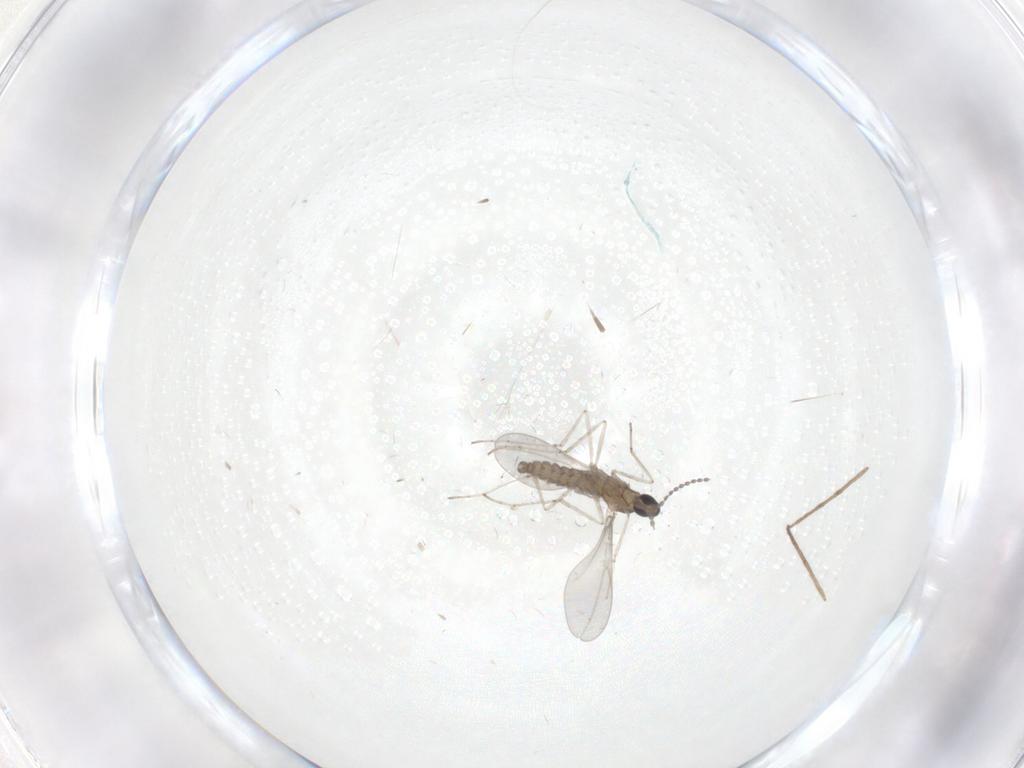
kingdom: Animalia
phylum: Arthropoda
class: Insecta
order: Diptera
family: Cecidomyiidae
